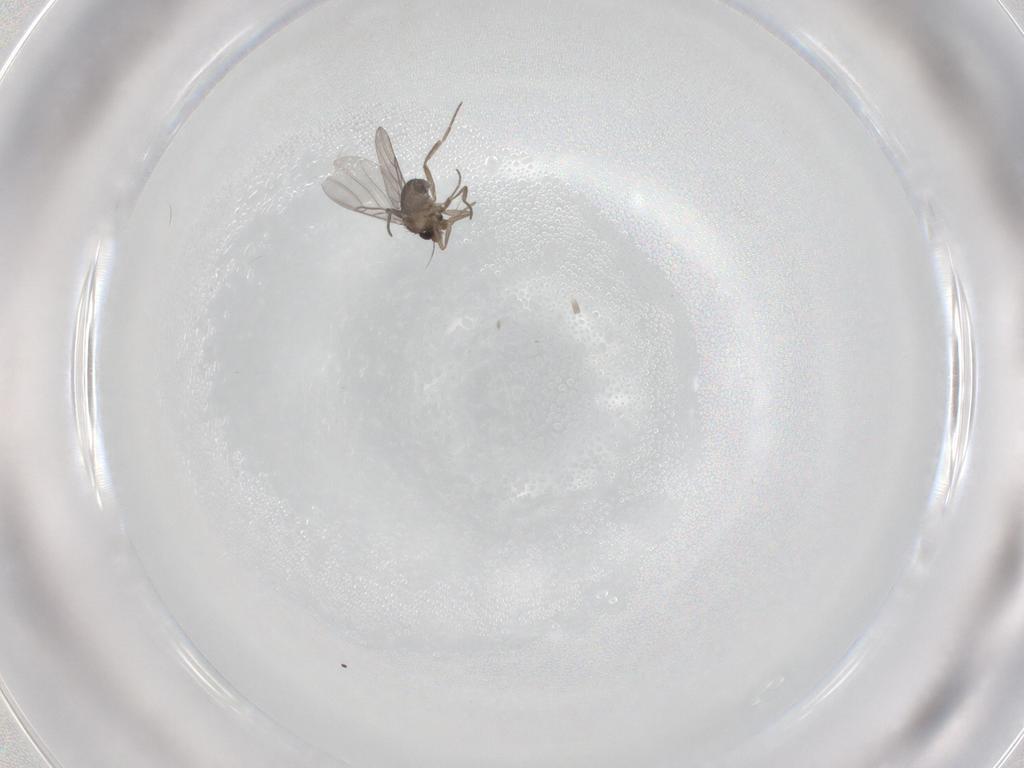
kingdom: Animalia
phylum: Arthropoda
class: Insecta
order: Diptera
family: Phoridae
